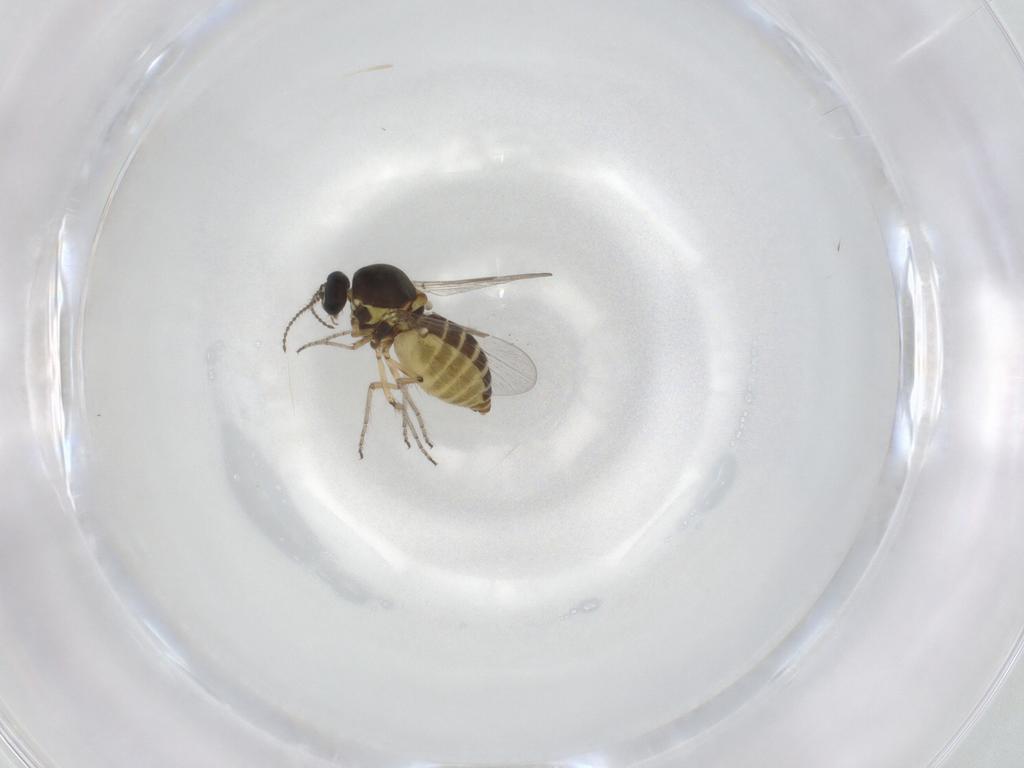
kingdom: Animalia
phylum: Arthropoda
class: Insecta
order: Diptera
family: Ceratopogonidae
